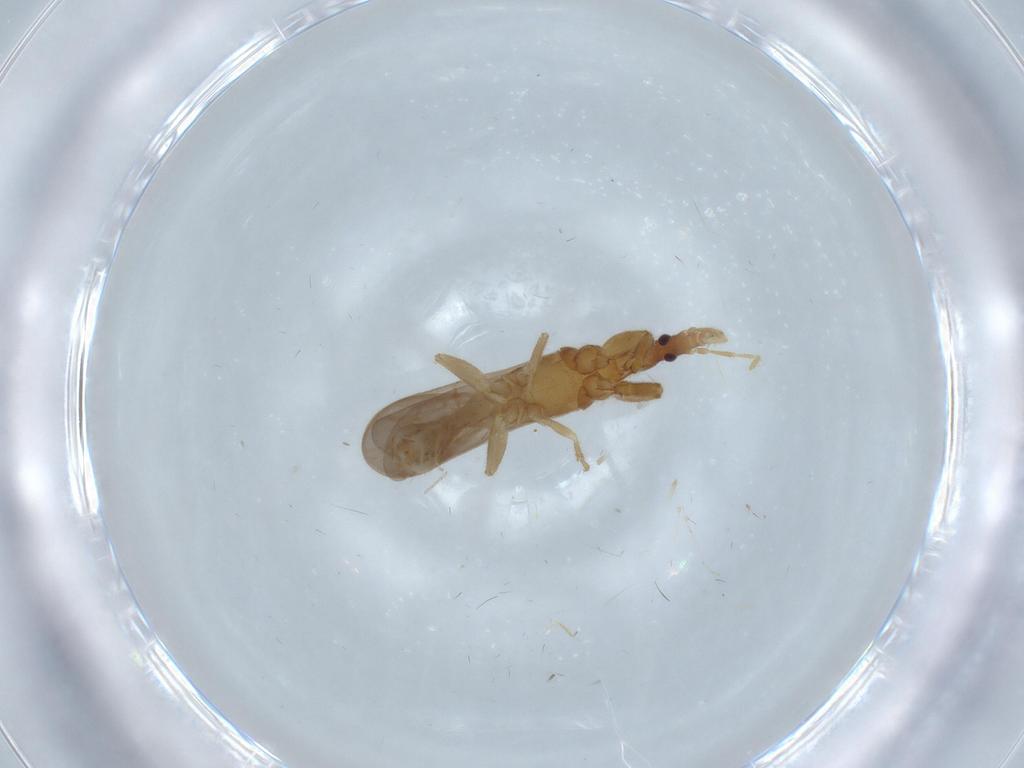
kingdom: Animalia
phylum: Arthropoda
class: Insecta
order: Hemiptera
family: Enicocephalidae
